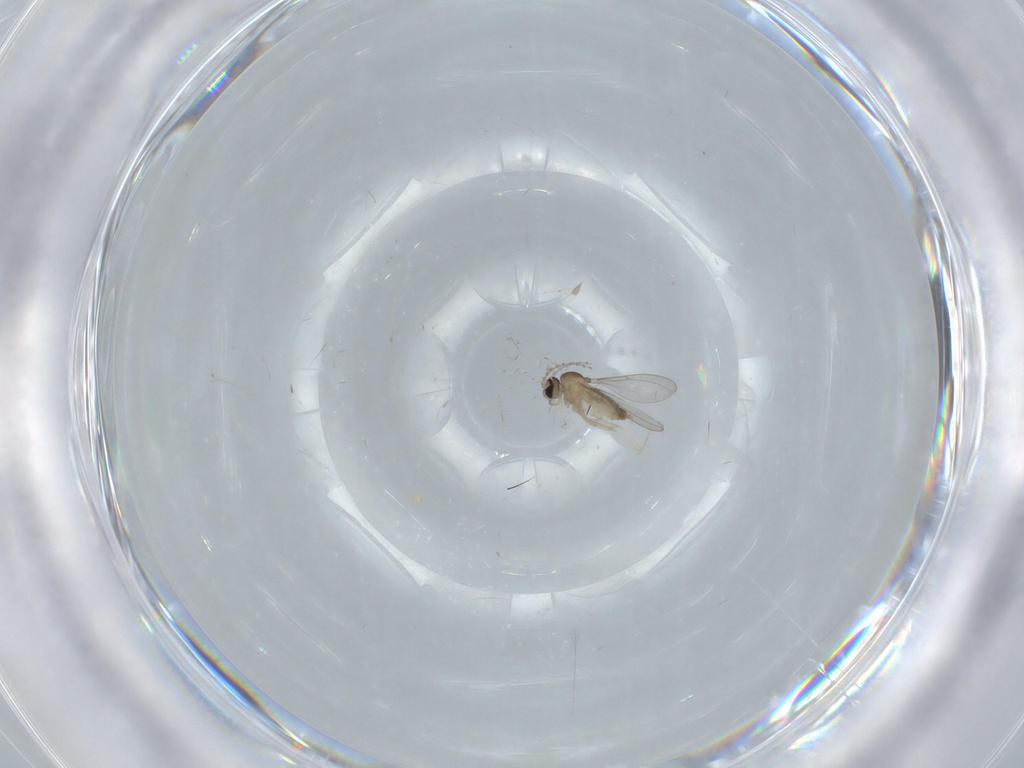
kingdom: Animalia
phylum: Arthropoda
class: Insecta
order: Diptera
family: Cecidomyiidae
